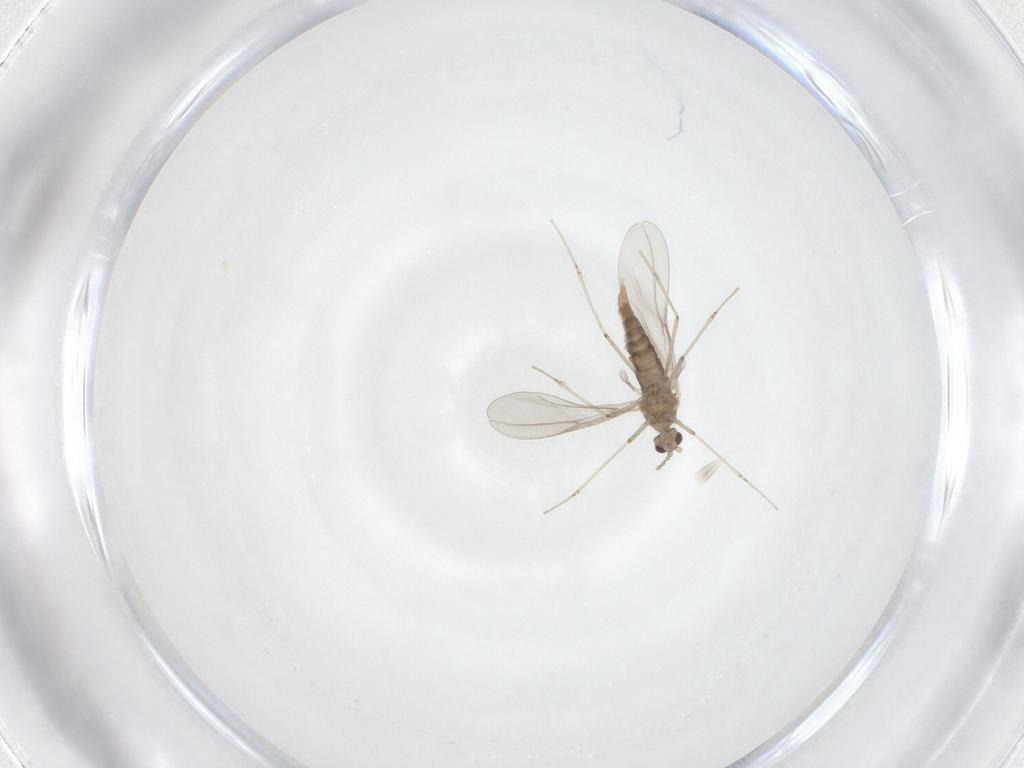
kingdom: Animalia
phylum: Arthropoda
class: Insecta
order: Diptera
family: Cecidomyiidae
